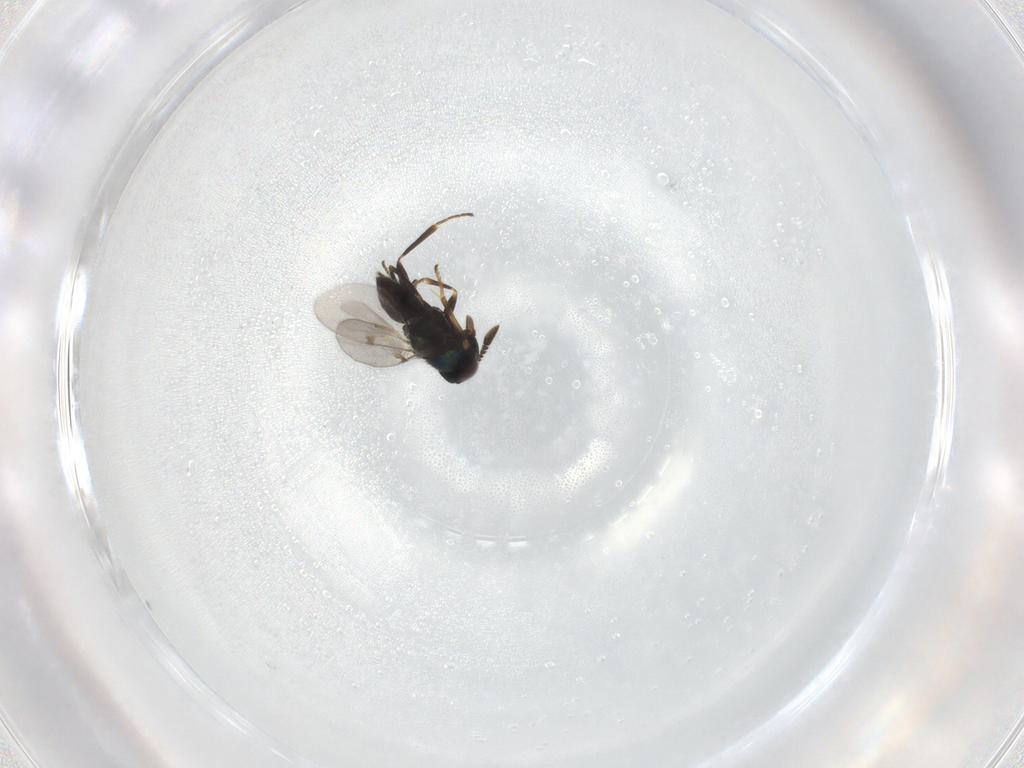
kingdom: Animalia
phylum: Arthropoda
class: Insecta
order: Hymenoptera
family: Encyrtidae
